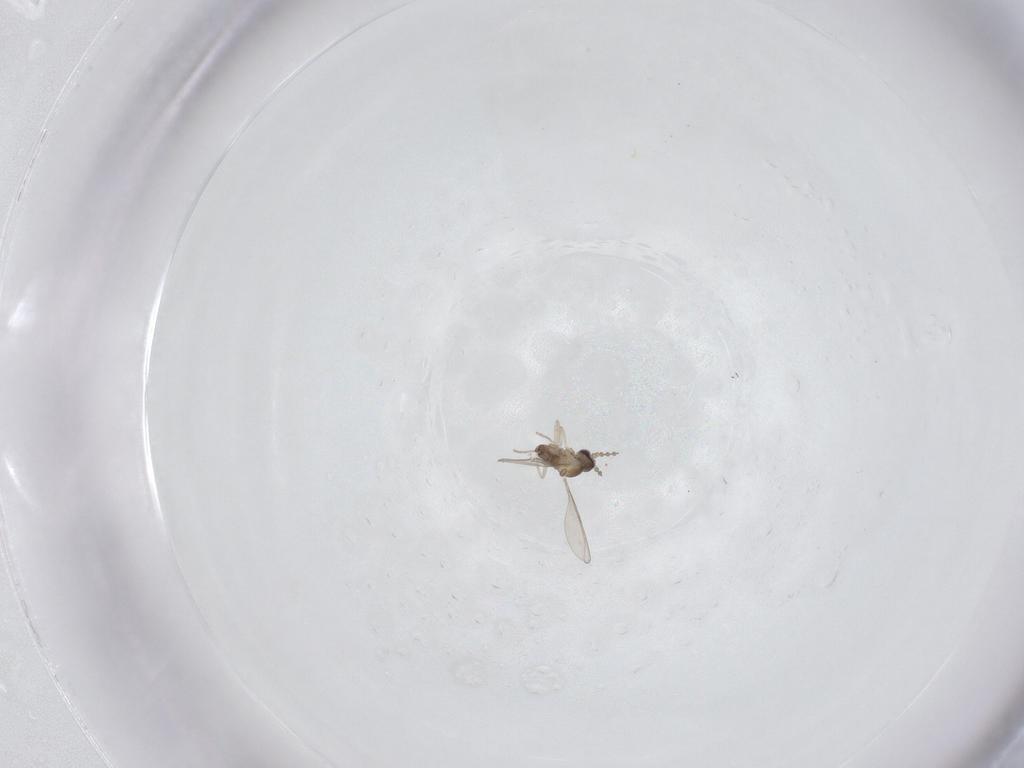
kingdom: Animalia
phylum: Arthropoda
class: Insecta
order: Diptera
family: Cecidomyiidae
